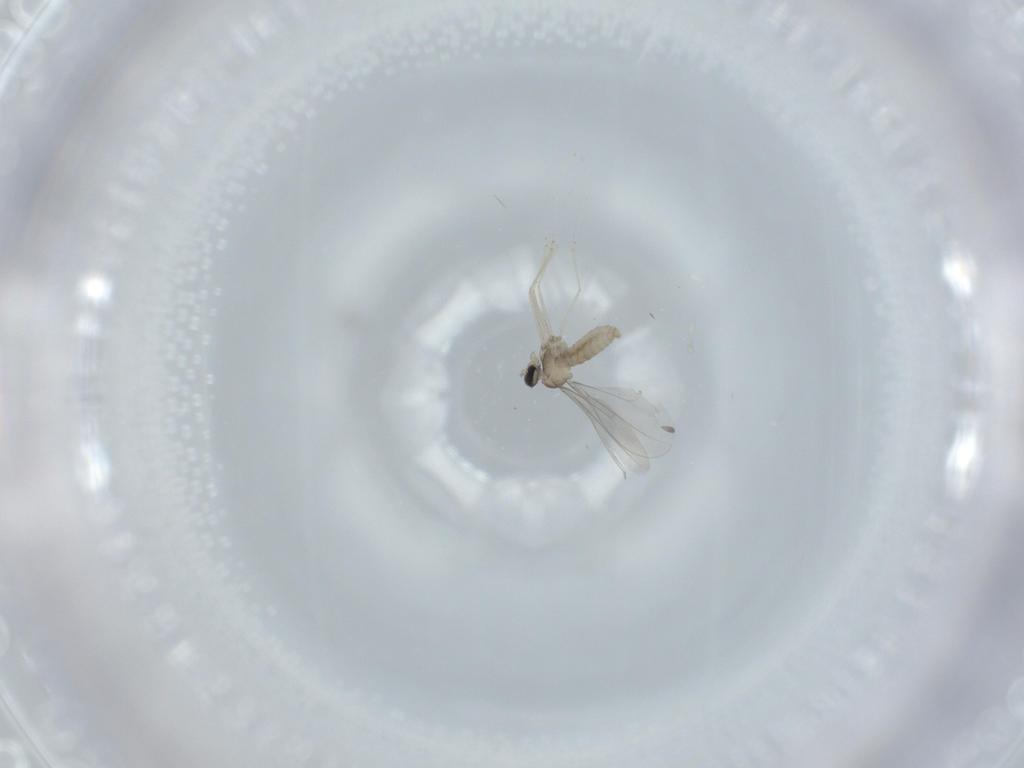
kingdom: Animalia
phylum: Arthropoda
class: Insecta
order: Diptera
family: Cecidomyiidae
